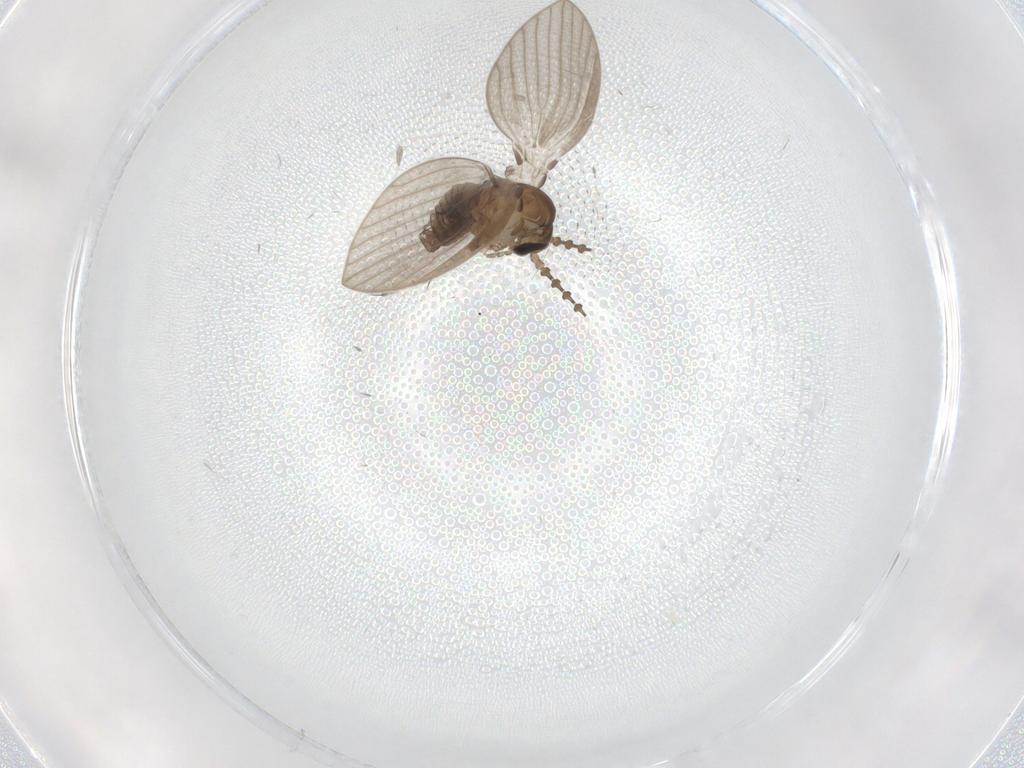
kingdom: Animalia
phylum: Arthropoda
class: Insecta
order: Diptera
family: Psychodidae
